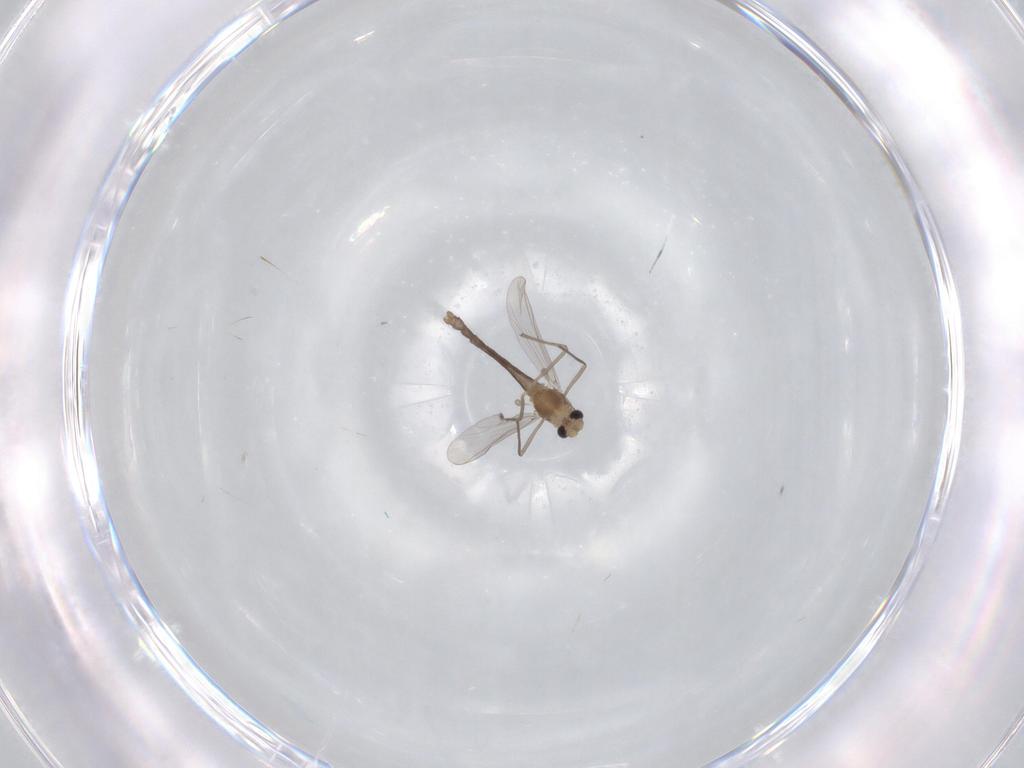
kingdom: Animalia
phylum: Arthropoda
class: Insecta
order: Diptera
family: Chironomidae
